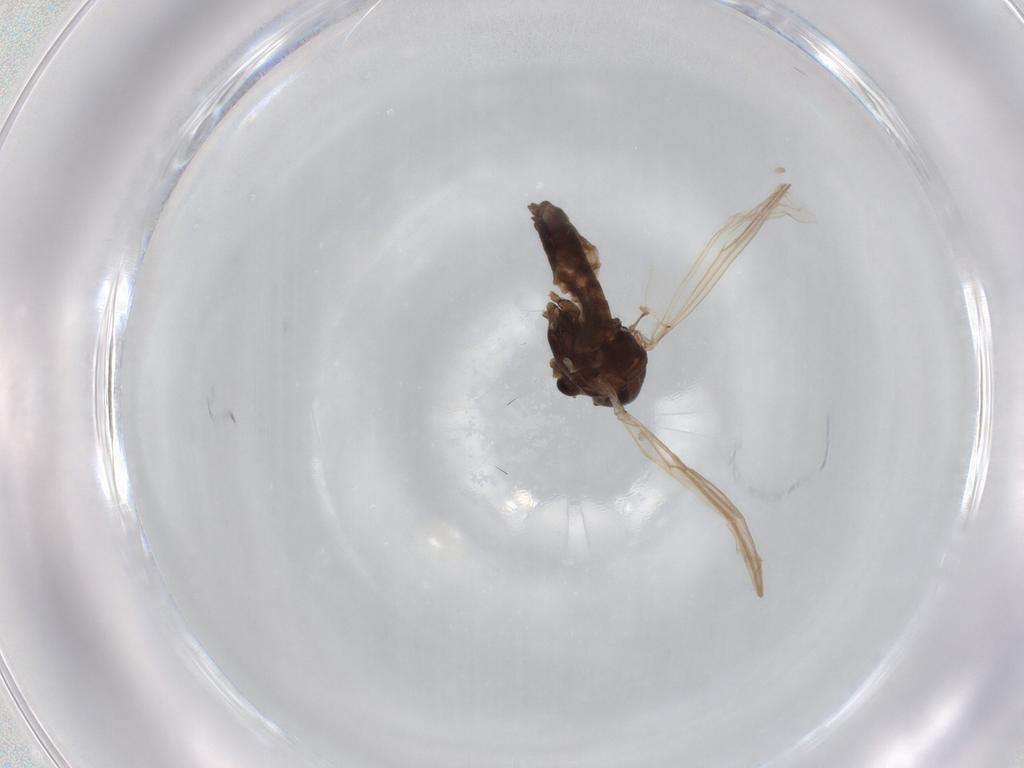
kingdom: Animalia
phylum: Arthropoda
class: Insecta
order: Diptera
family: Chironomidae
